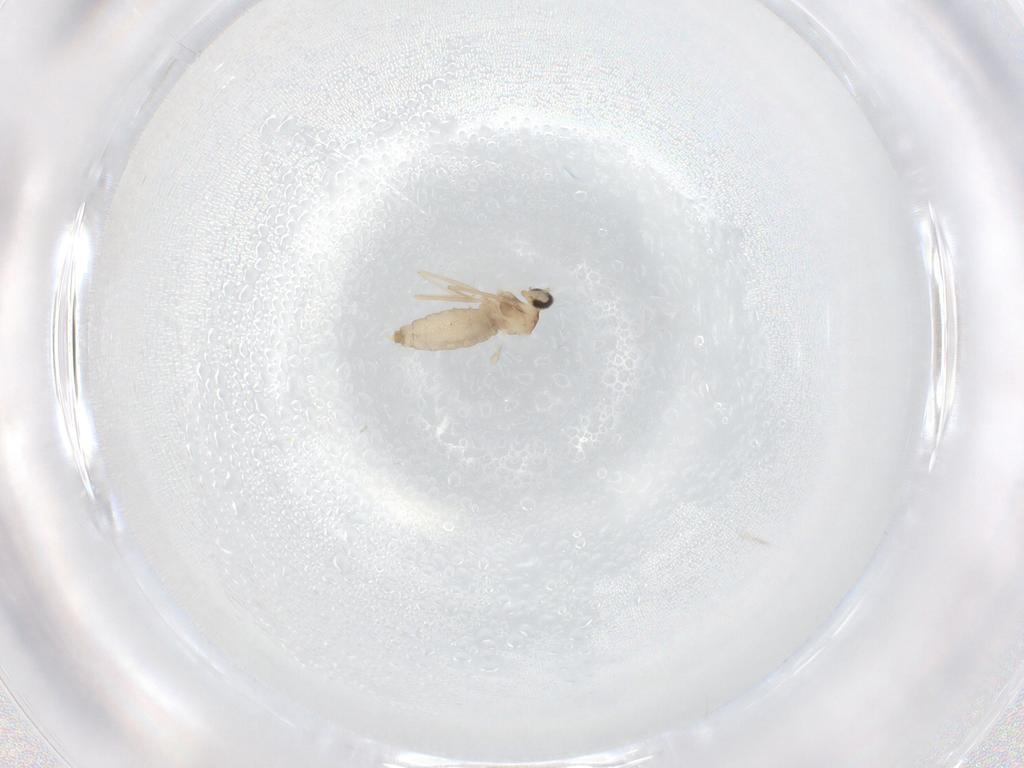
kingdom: Animalia
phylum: Arthropoda
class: Insecta
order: Diptera
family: Cecidomyiidae
